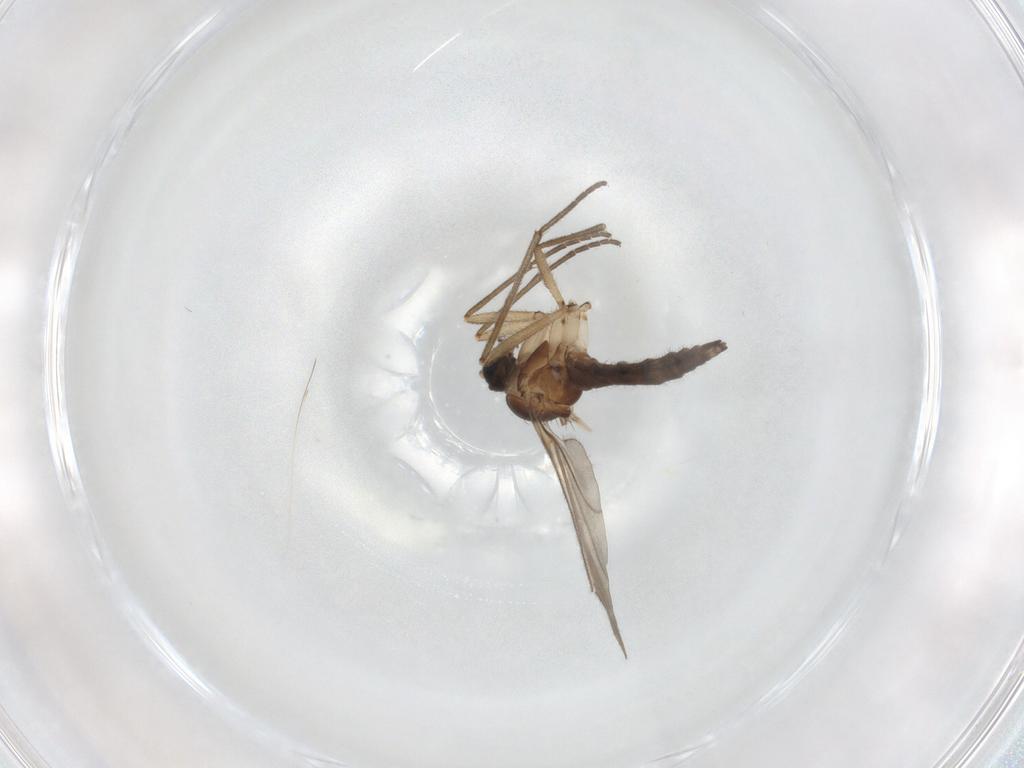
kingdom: Animalia
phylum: Arthropoda
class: Insecta
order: Diptera
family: Sciaridae
